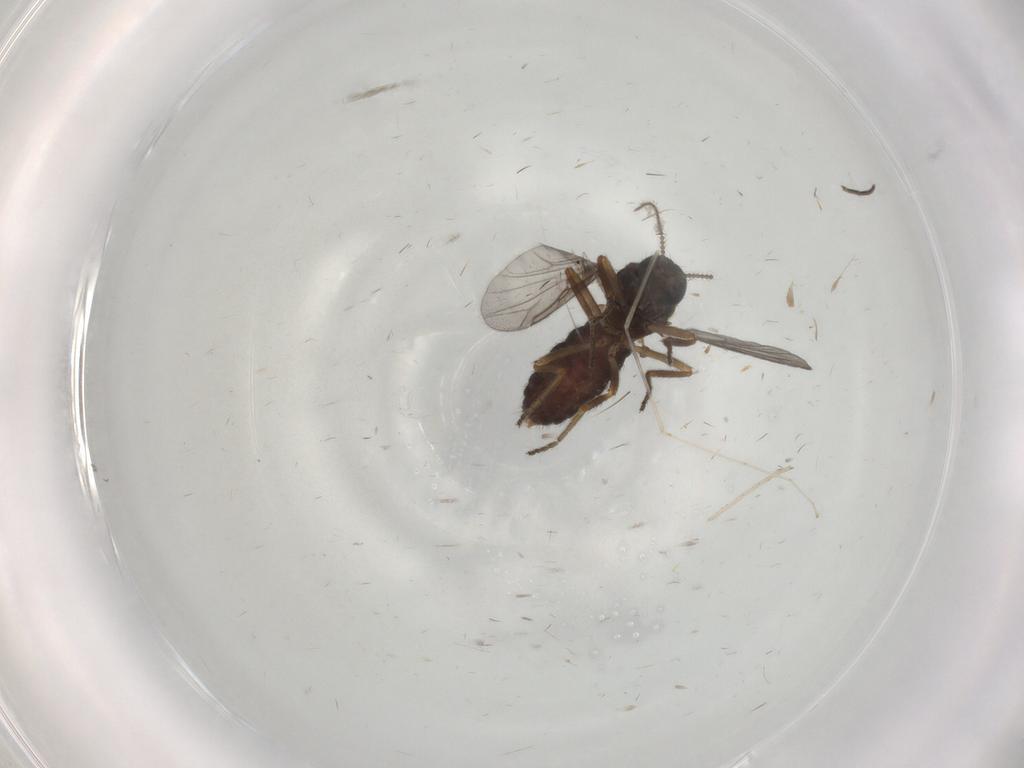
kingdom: Animalia
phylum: Arthropoda
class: Insecta
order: Diptera
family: Ceratopogonidae
